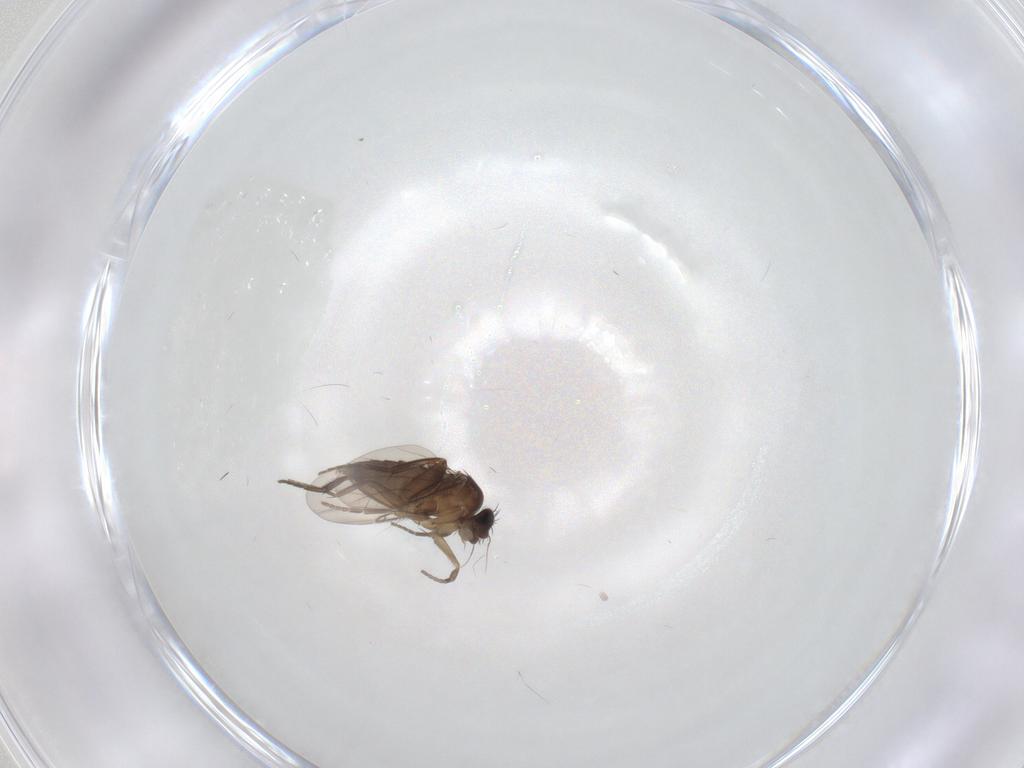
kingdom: Animalia
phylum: Arthropoda
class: Insecta
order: Diptera
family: Phoridae
